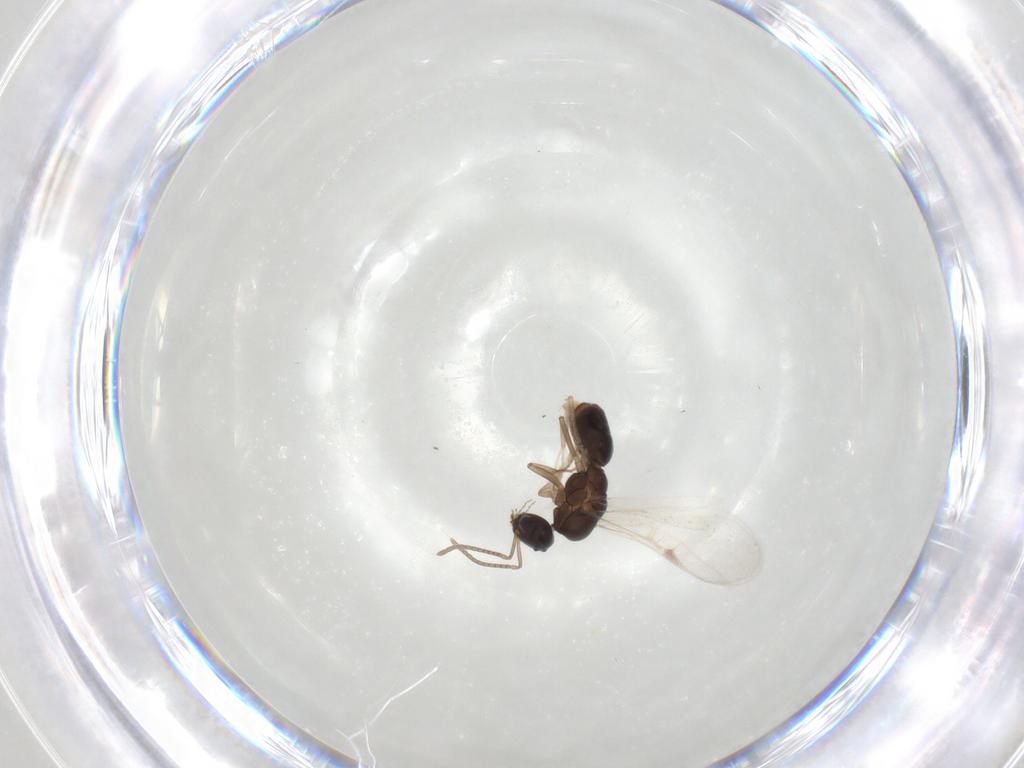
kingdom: Animalia
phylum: Arthropoda
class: Insecta
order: Hymenoptera
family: Formicidae
